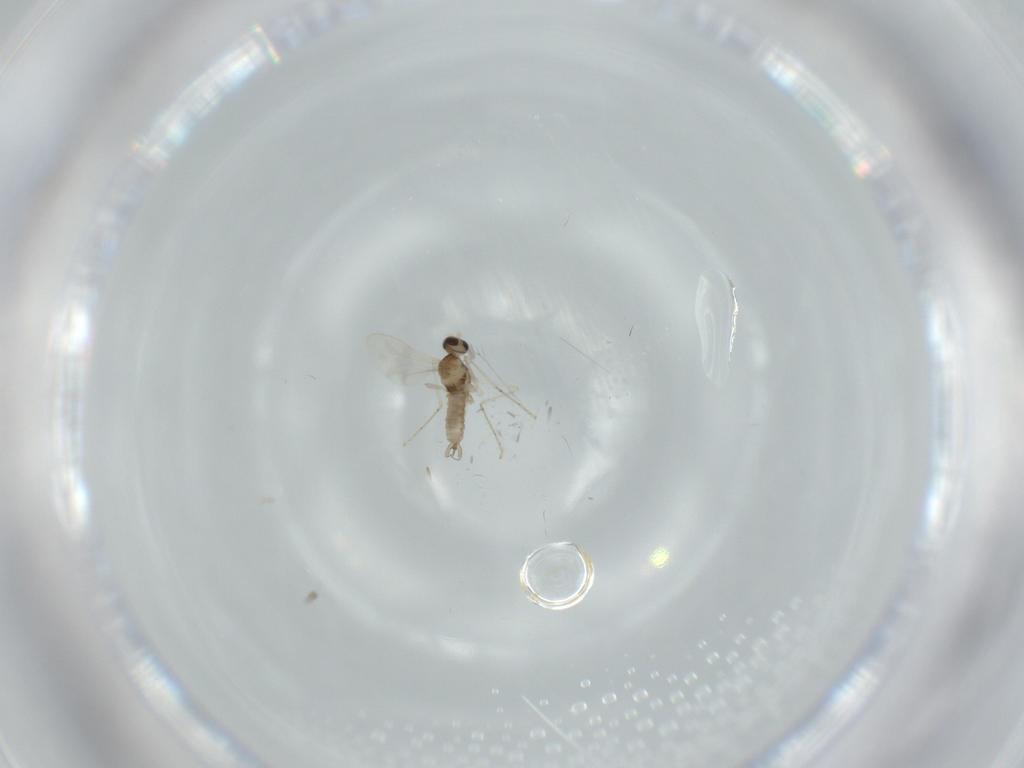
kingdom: Animalia
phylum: Arthropoda
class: Insecta
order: Diptera
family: Cecidomyiidae
